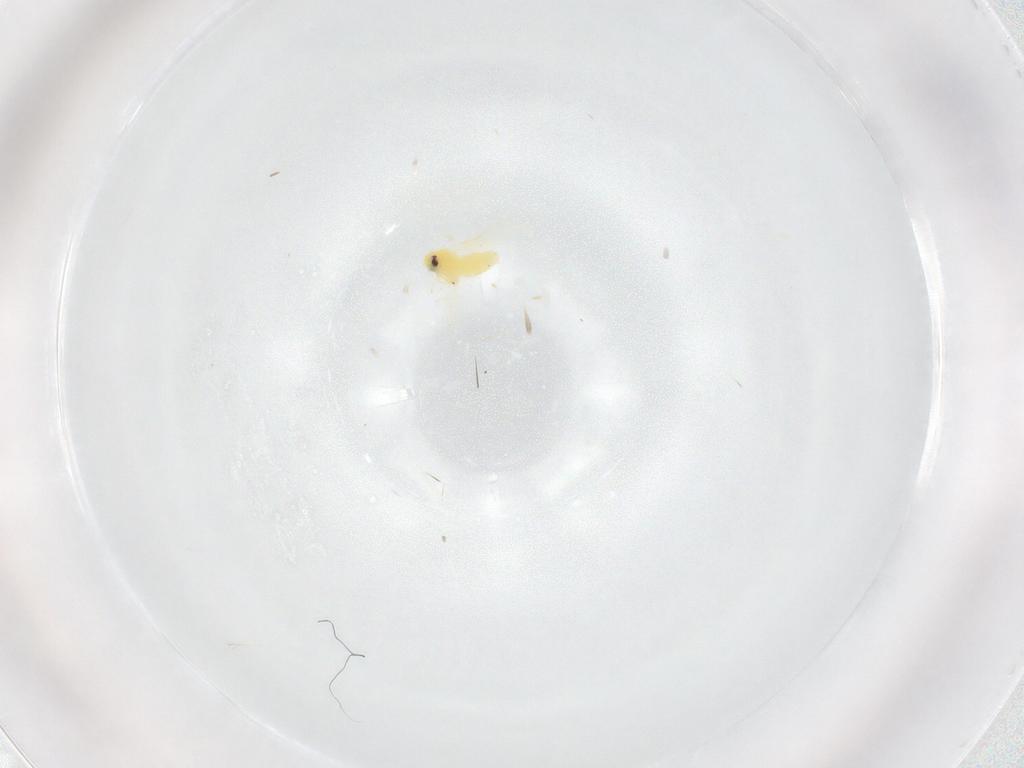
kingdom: Animalia
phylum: Arthropoda
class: Insecta
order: Hemiptera
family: Aleyrodidae
